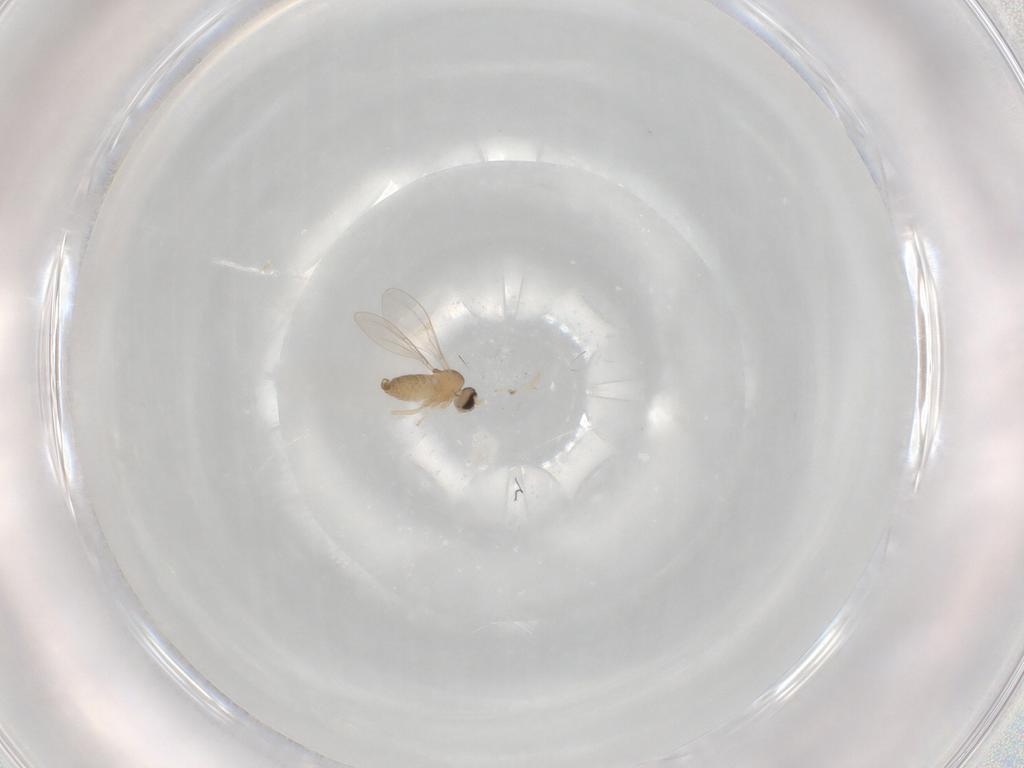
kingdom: Animalia
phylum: Arthropoda
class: Insecta
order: Diptera
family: Cecidomyiidae
